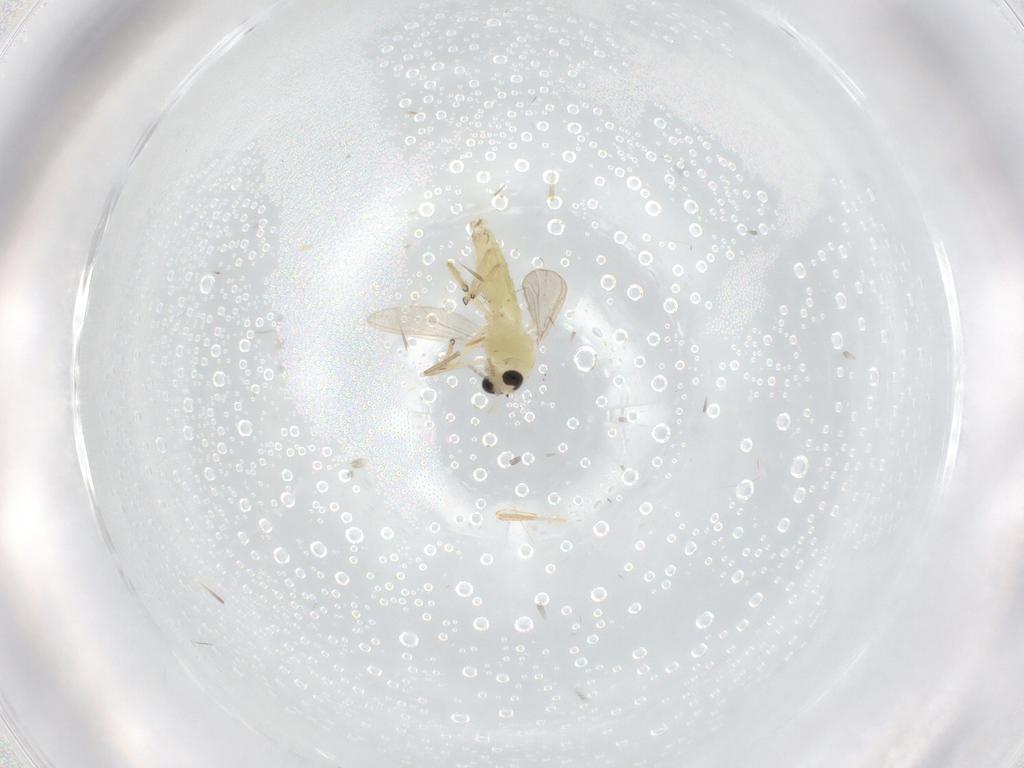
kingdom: Animalia
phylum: Arthropoda
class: Insecta
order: Diptera
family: Chironomidae
